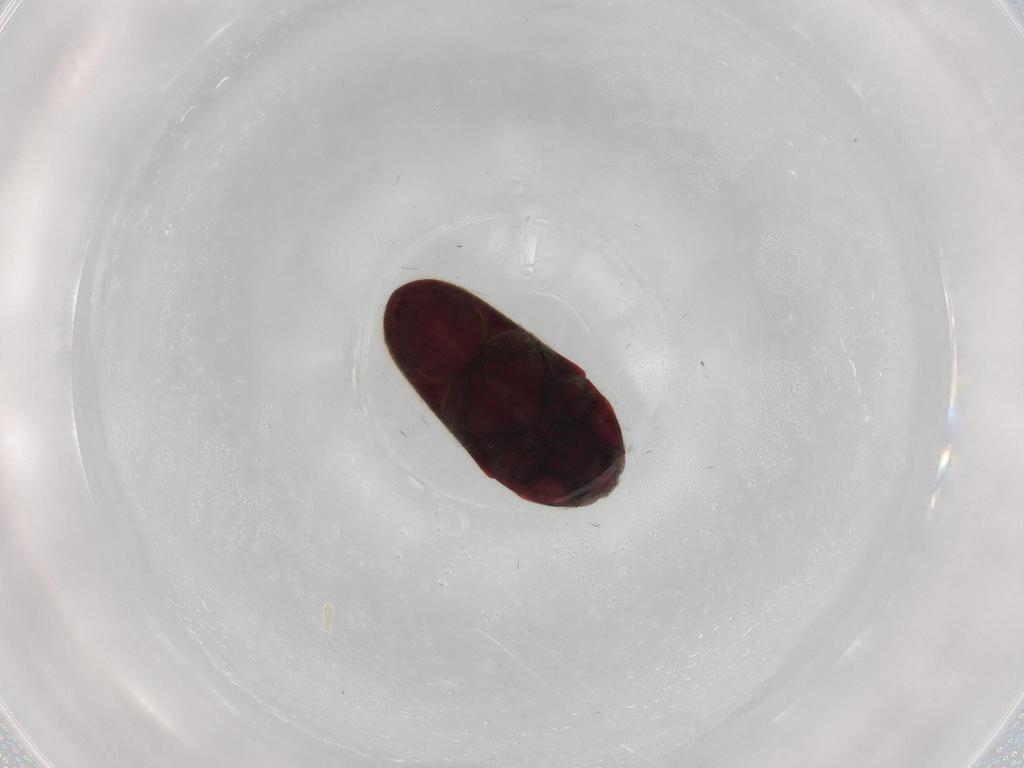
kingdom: Animalia
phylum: Arthropoda
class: Insecta
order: Coleoptera
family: Throscidae
